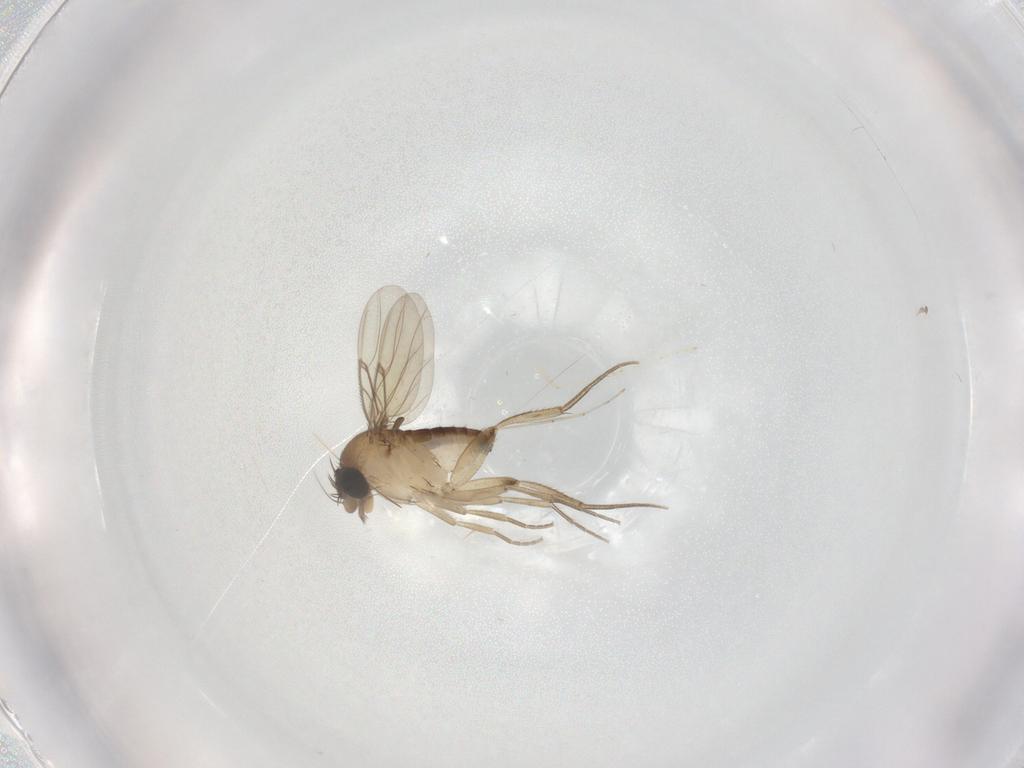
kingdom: Animalia
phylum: Arthropoda
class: Insecta
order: Diptera
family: Phoridae
